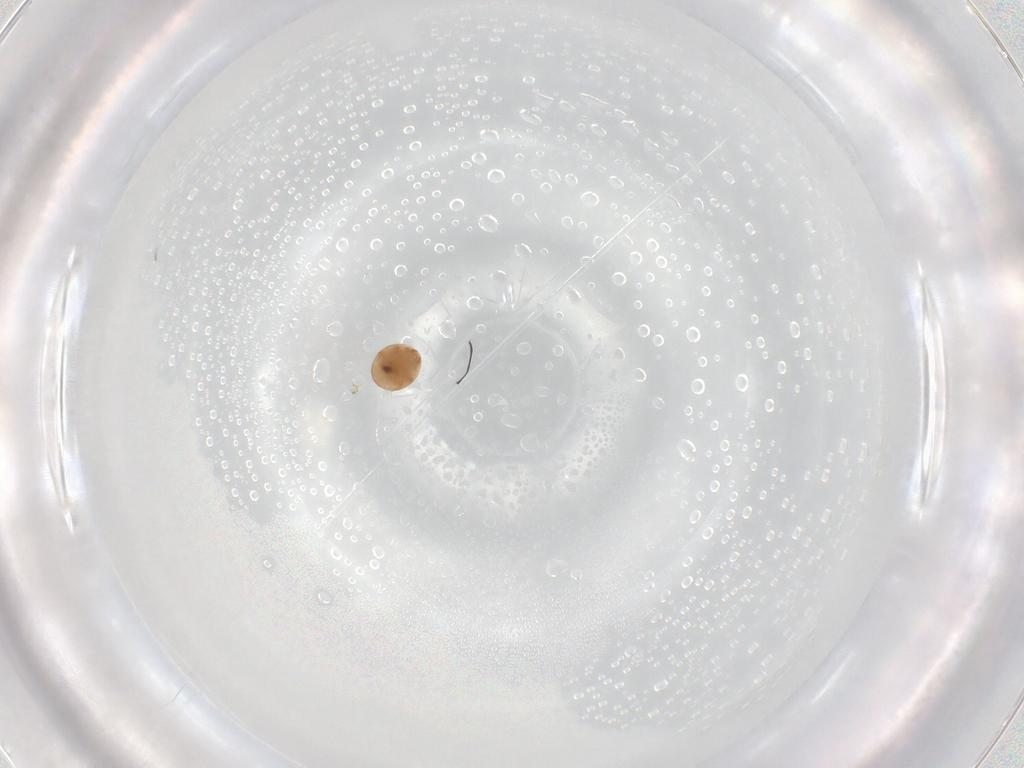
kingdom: Animalia
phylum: Arthropoda
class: Arachnida
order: Mesostigmata
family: Trematuridae
